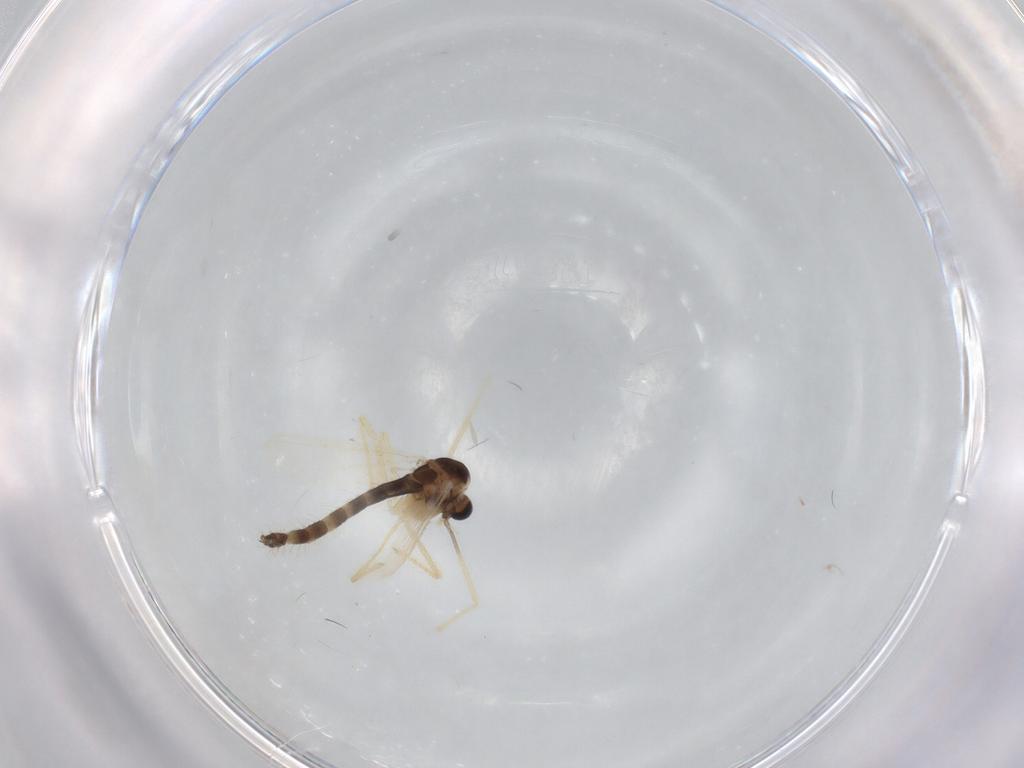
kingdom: Animalia
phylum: Arthropoda
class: Insecta
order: Diptera
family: Chironomidae
